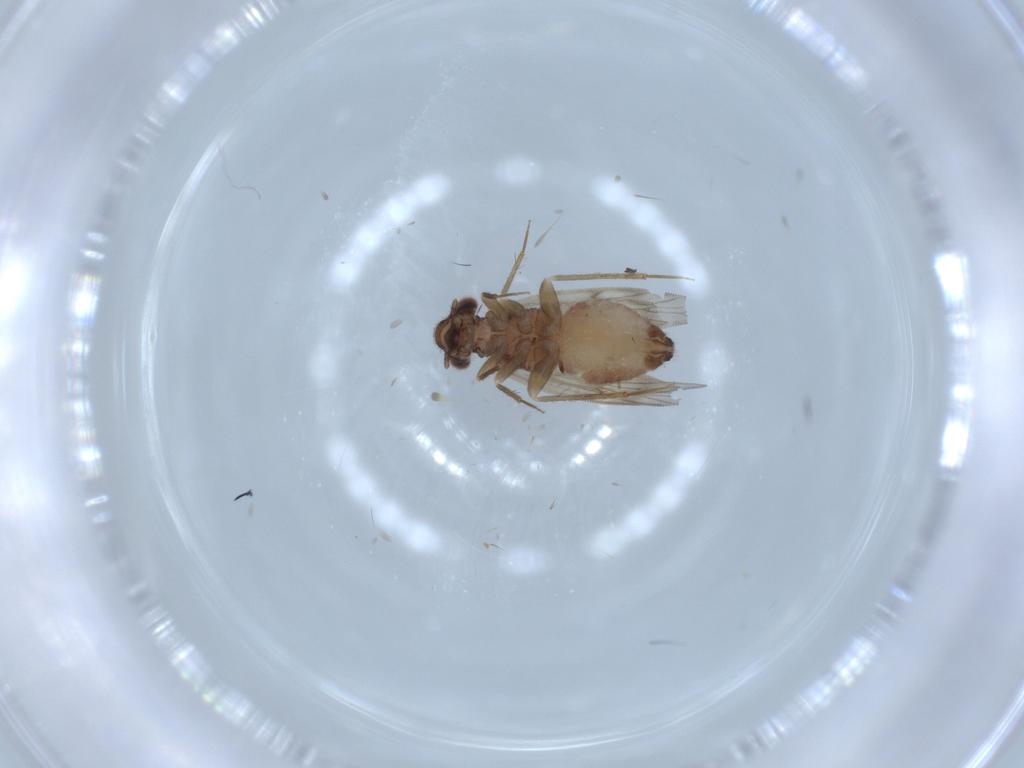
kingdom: Animalia
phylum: Arthropoda
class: Insecta
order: Psocodea
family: Lepidopsocidae
